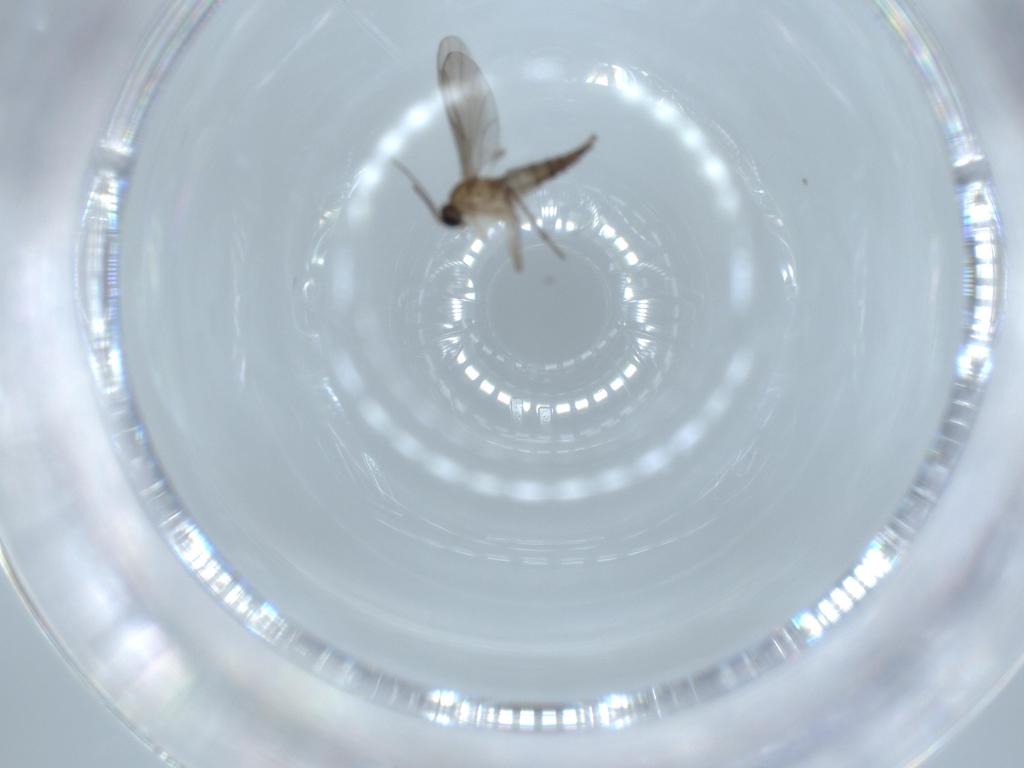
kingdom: Animalia
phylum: Arthropoda
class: Insecta
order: Diptera
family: Sciaridae
